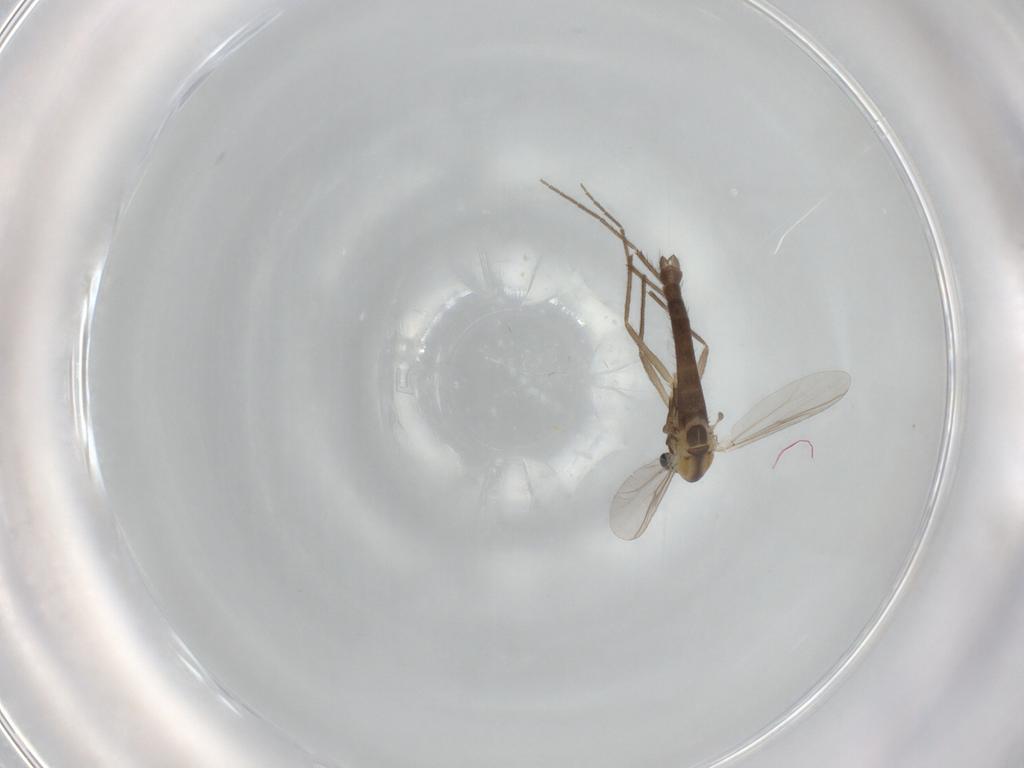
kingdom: Animalia
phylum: Arthropoda
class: Insecta
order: Diptera
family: Chironomidae
